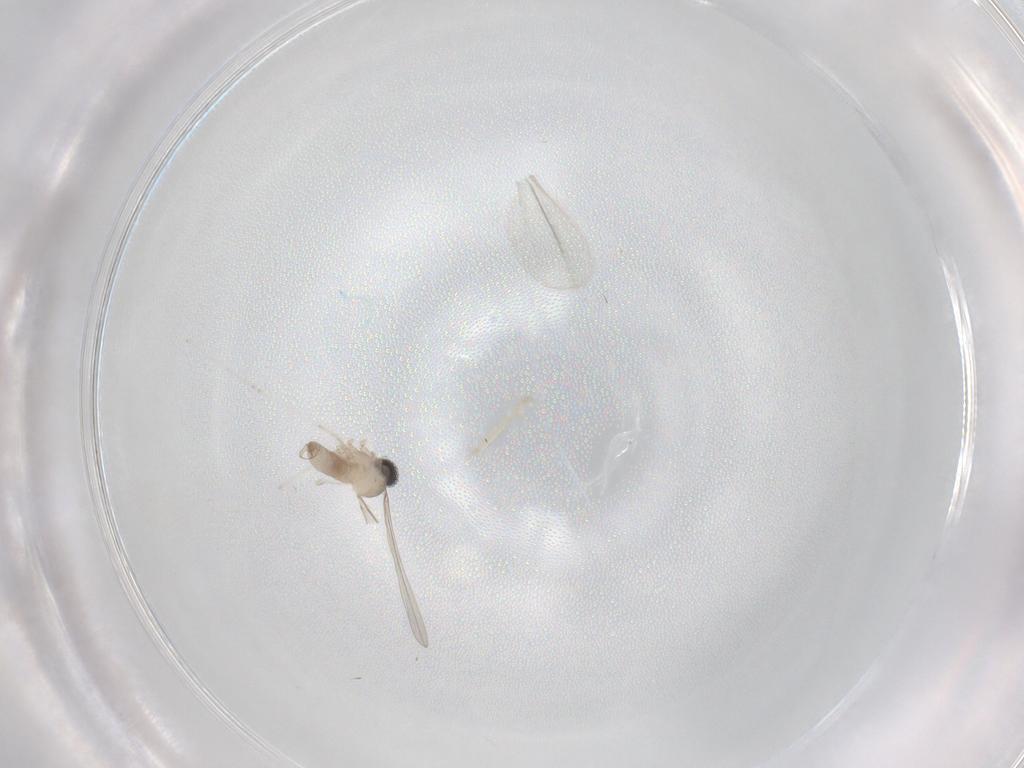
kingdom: Animalia
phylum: Arthropoda
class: Insecta
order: Diptera
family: Cecidomyiidae
